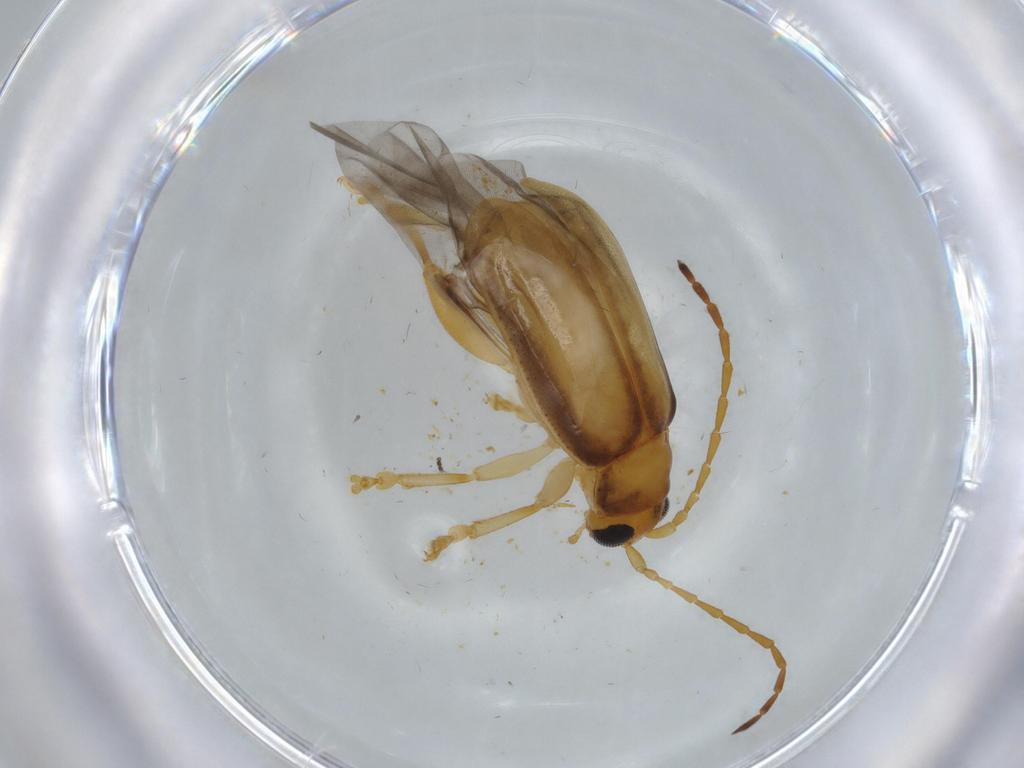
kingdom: Animalia
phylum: Arthropoda
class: Insecta
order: Coleoptera
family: Chrysomelidae
